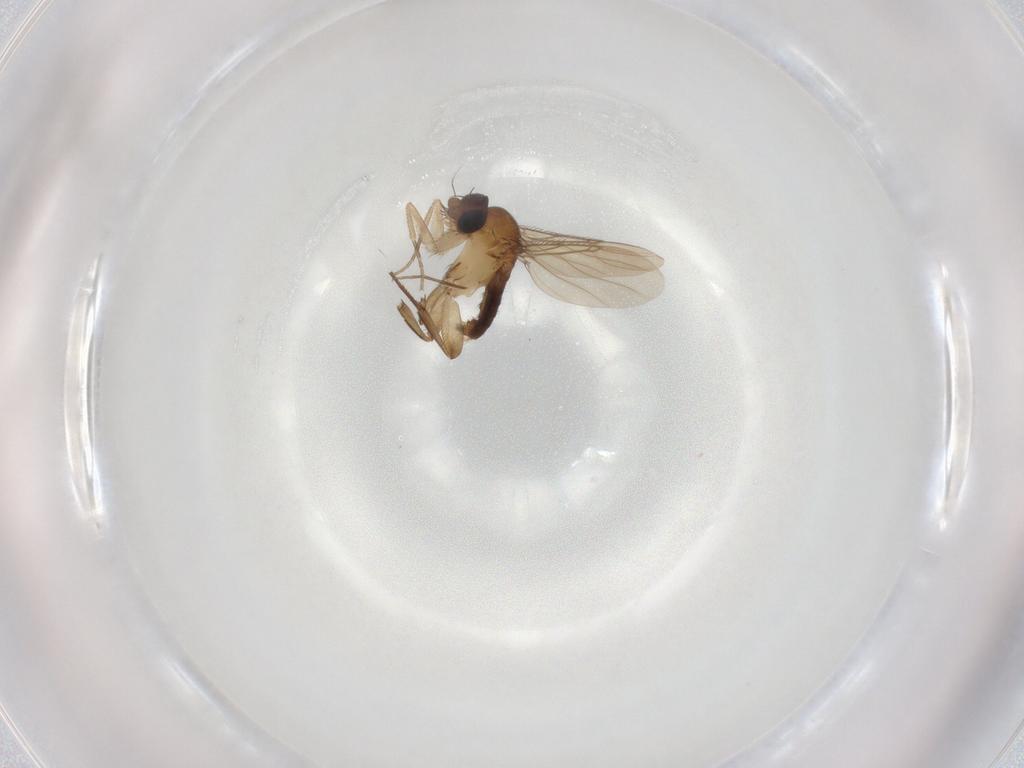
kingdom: Animalia
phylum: Arthropoda
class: Insecta
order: Diptera
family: Phoridae
